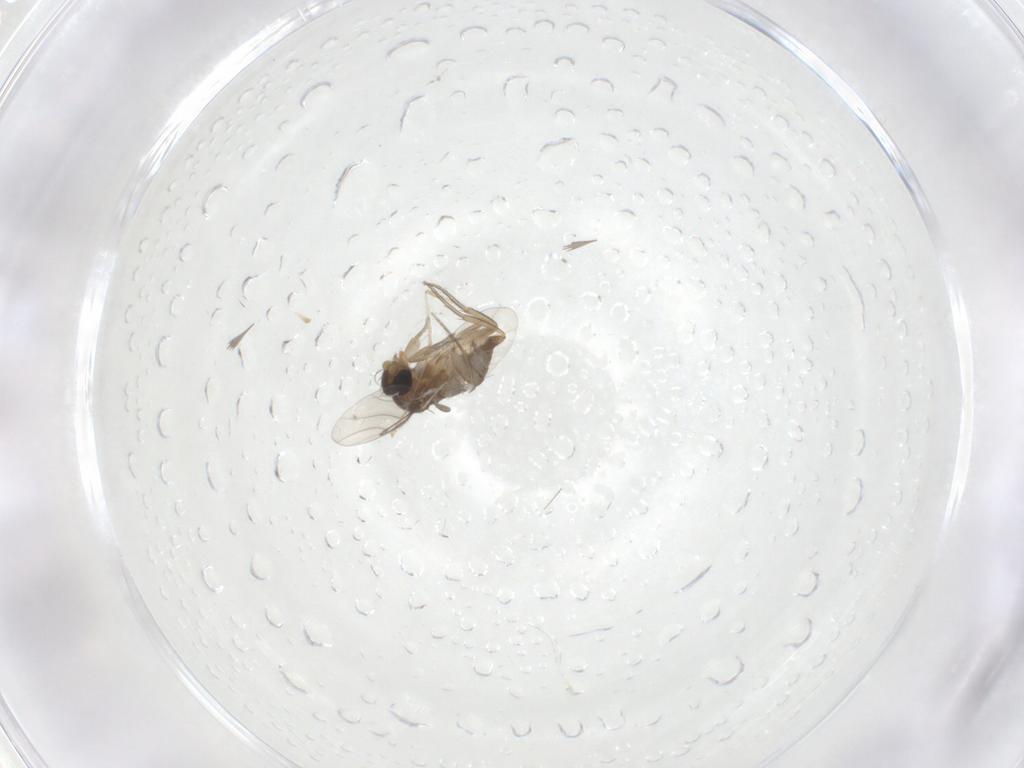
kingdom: Animalia
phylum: Arthropoda
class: Insecta
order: Diptera
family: Phoridae
